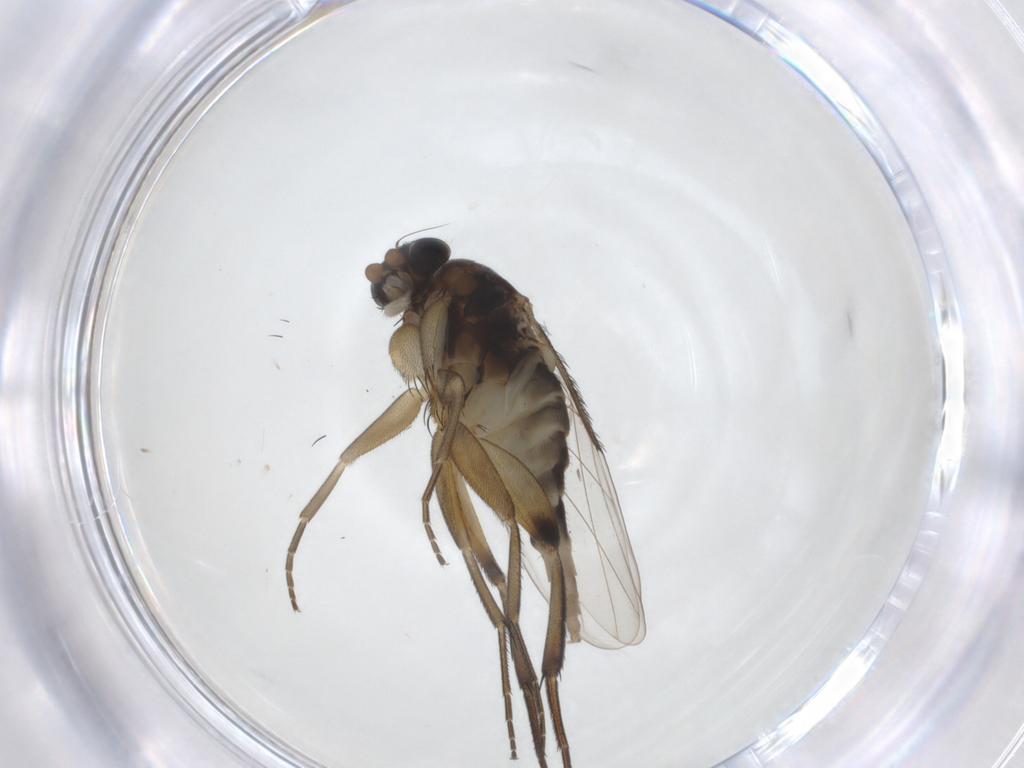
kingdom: Animalia
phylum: Arthropoda
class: Insecta
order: Diptera
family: Phoridae
